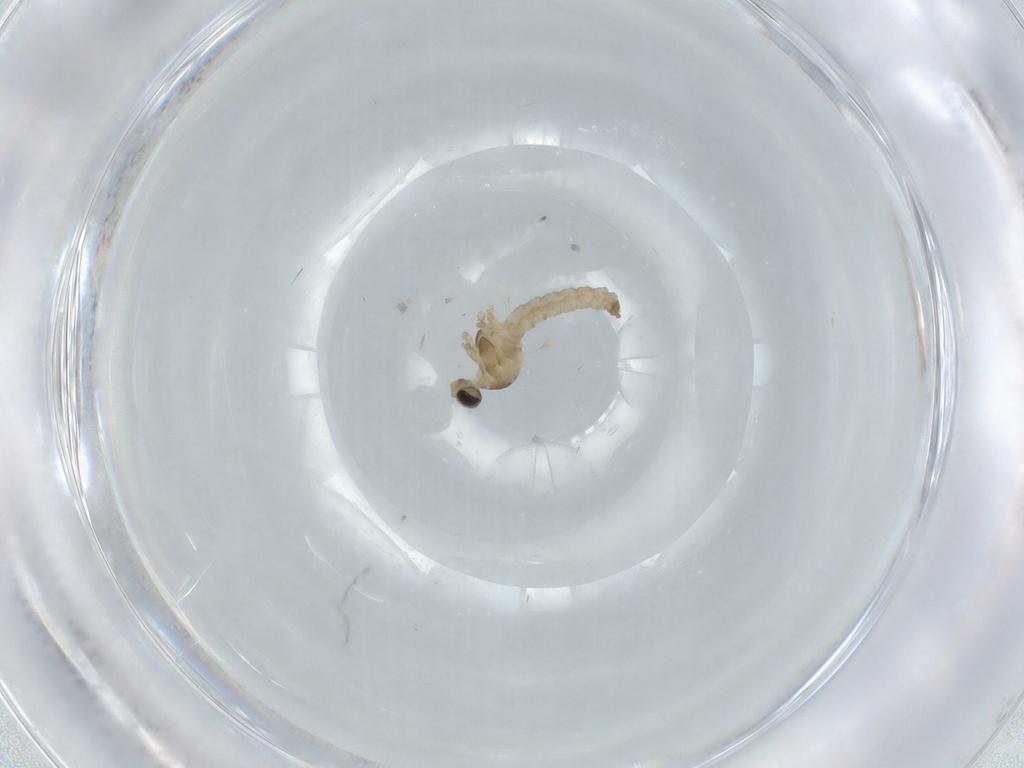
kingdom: Animalia
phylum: Arthropoda
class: Insecta
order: Diptera
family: Cecidomyiidae
